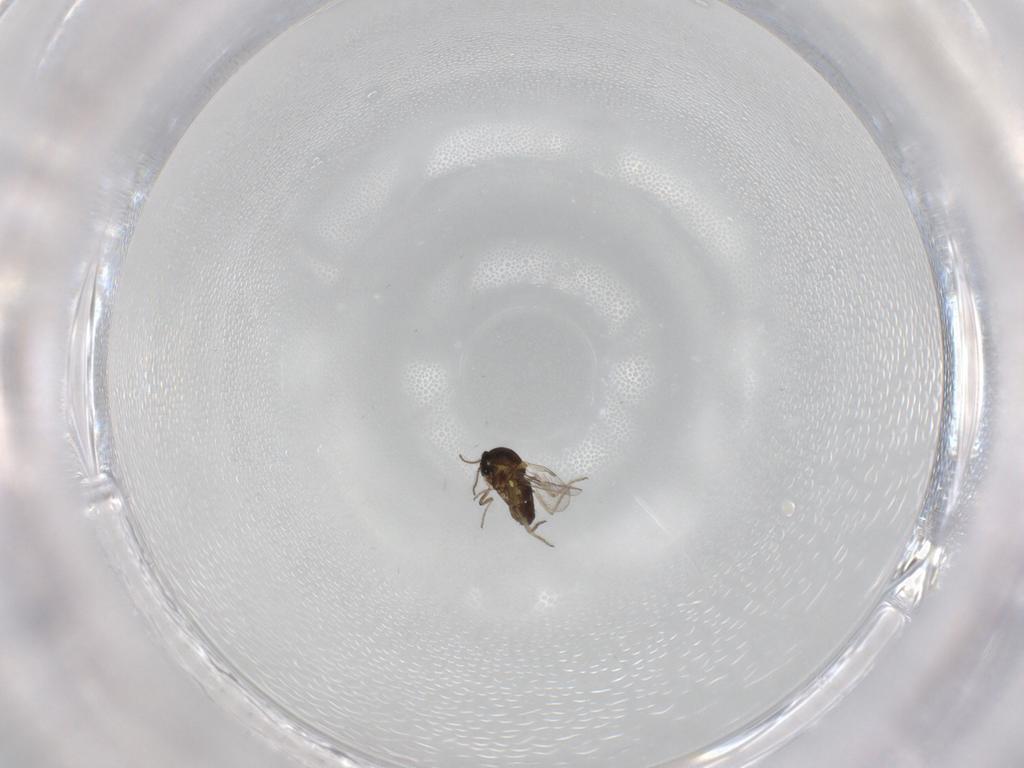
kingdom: Animalia
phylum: Arthropoda
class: Insecta
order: Diptera
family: Ceratopogonidae
